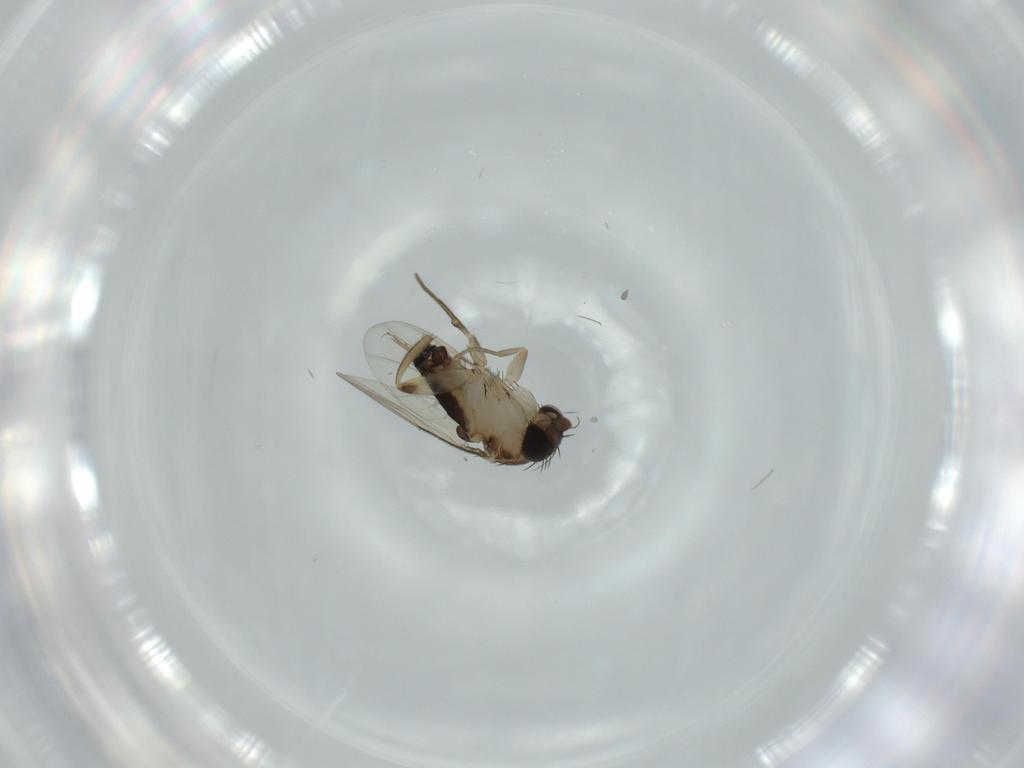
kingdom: Animalia
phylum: Arthropoda
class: Insecta
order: Diptera
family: Phoridae
